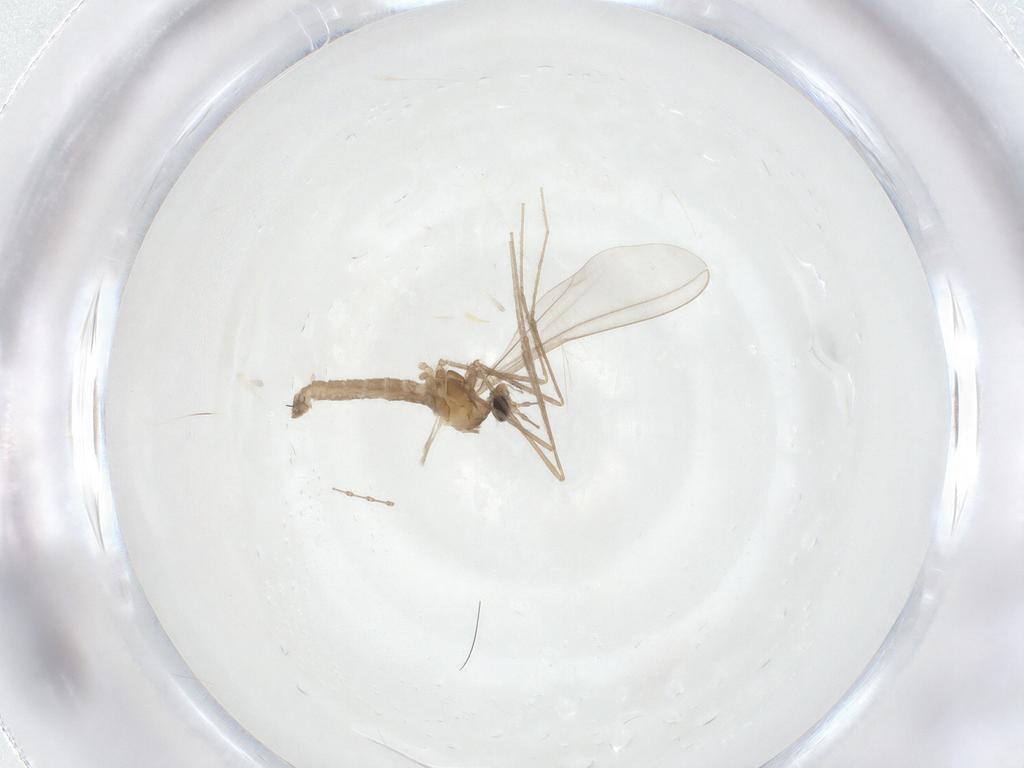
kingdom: Animalia
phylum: Arthropoda
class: Insecta
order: Diptera
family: Cecidomyiidae
